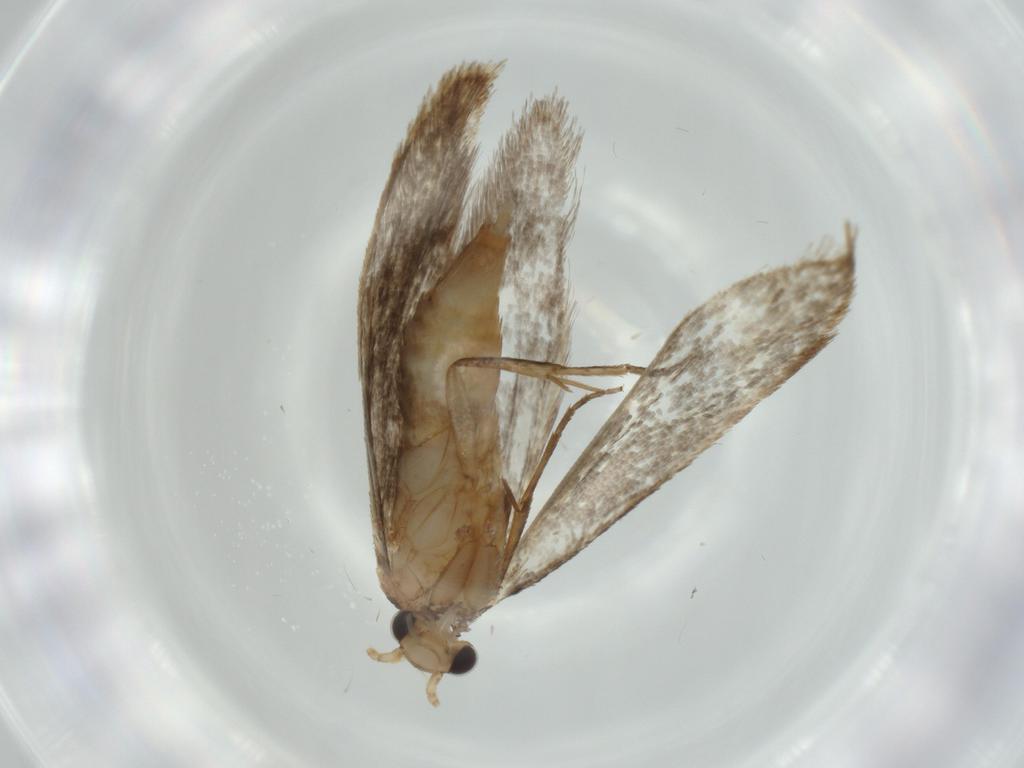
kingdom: Animalia
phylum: Arthropoda
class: Insecta
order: Lepidoptera
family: Tineidae
